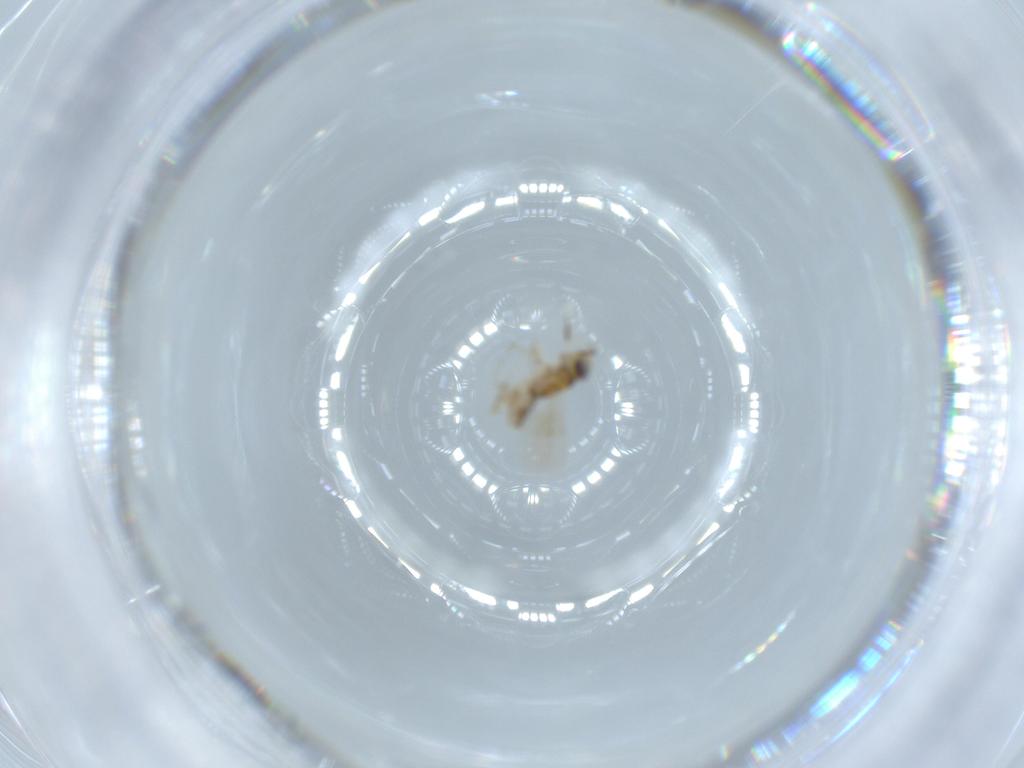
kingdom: Animalia
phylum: Arthropoda
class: Insecta
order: Hymenoptera
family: Encyrtidae
